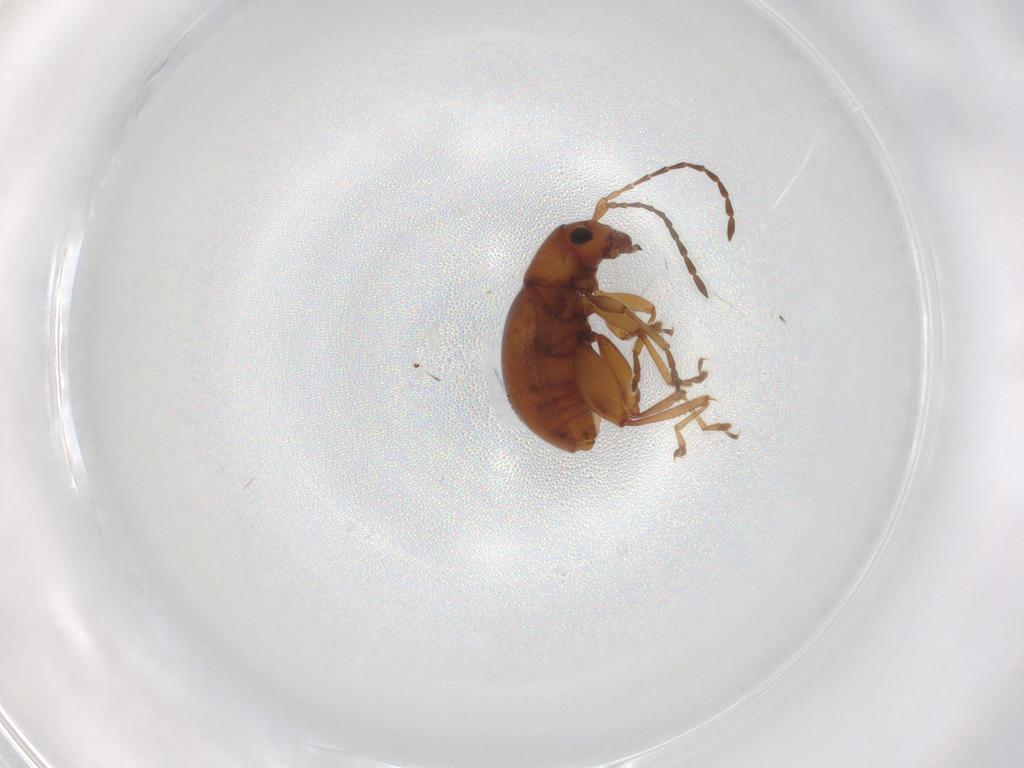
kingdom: Animalia
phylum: Arthropoda
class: Insecta
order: Coleoptera
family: Chrysomelidae
